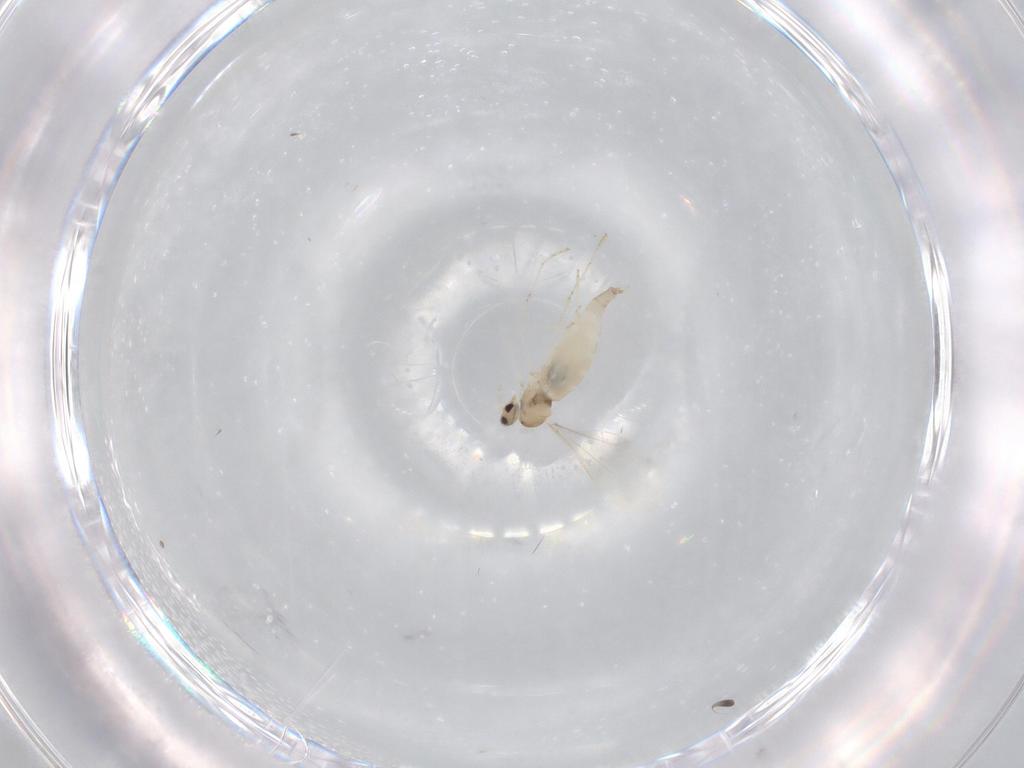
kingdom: Animalia
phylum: Arthropoda
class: Insecta
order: Diptera
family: Cecidomyiidae
